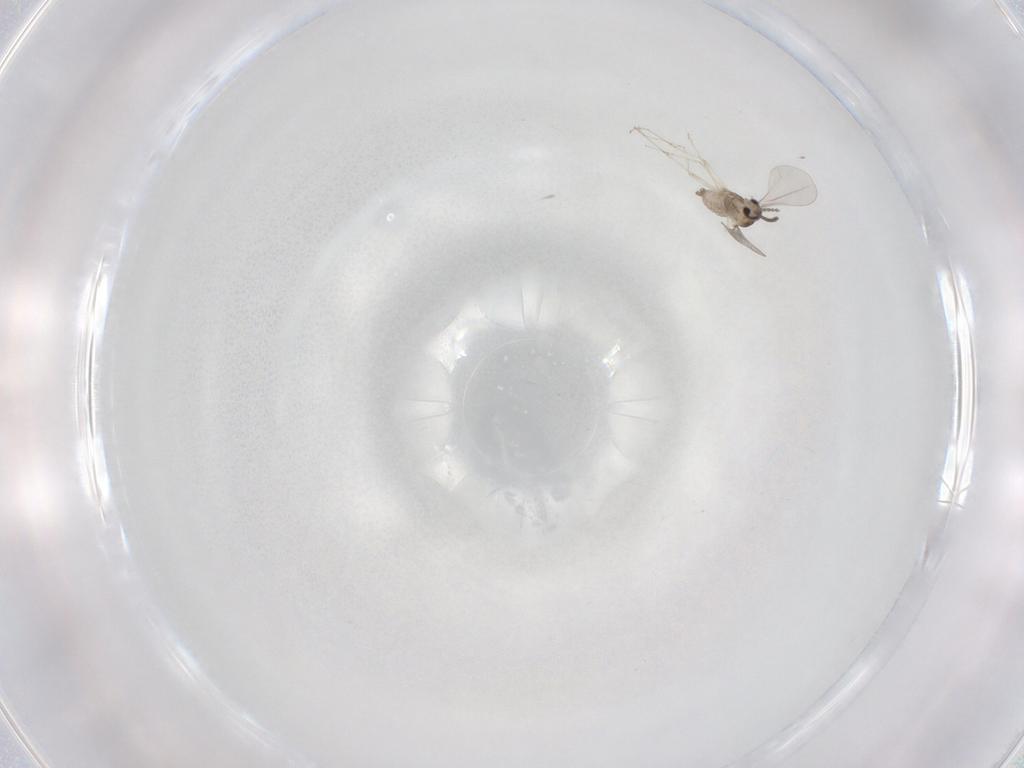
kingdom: Animalia
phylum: Arthropoda
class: Insecta
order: Diptera
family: Cecidomyiidae
